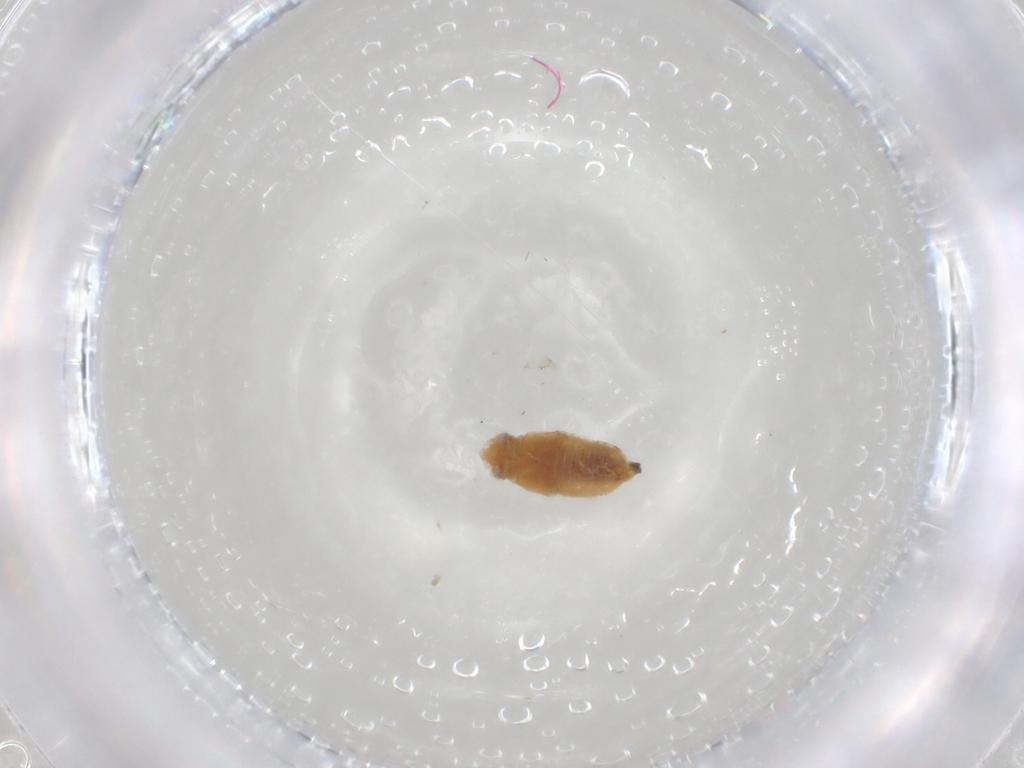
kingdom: Animalia
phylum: Arthropoda
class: Insecta
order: Hemiptera
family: Miridae
